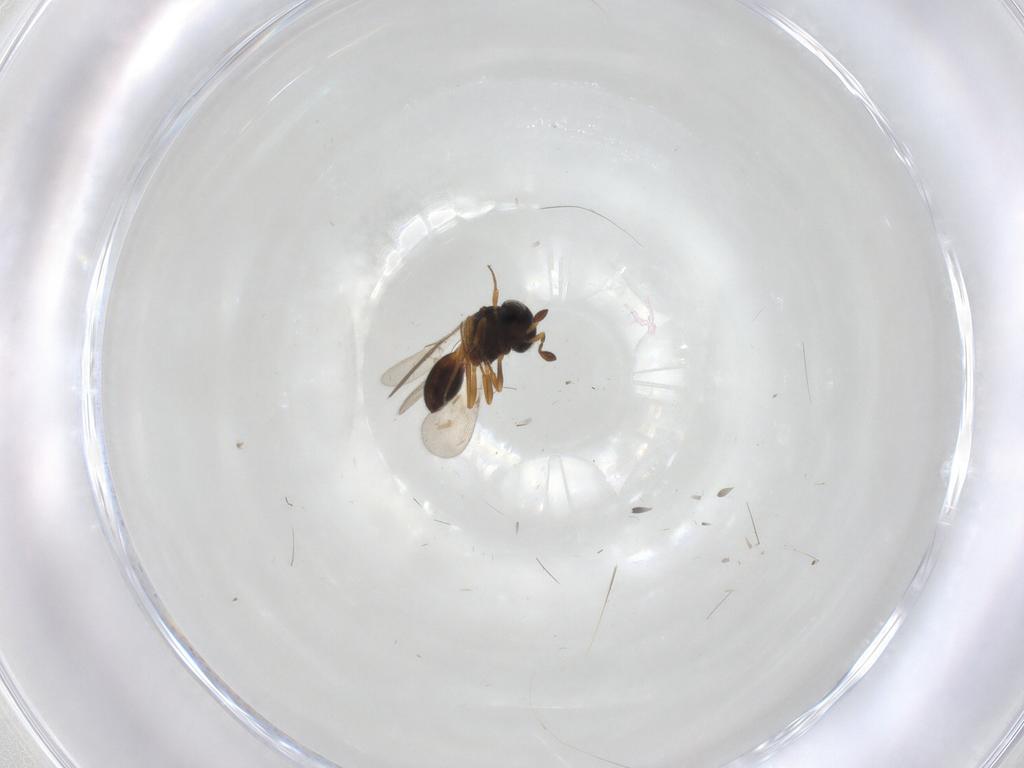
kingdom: Animalia
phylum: Arthropoda
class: Insecta
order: Hymenoptera
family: Scelionidae
